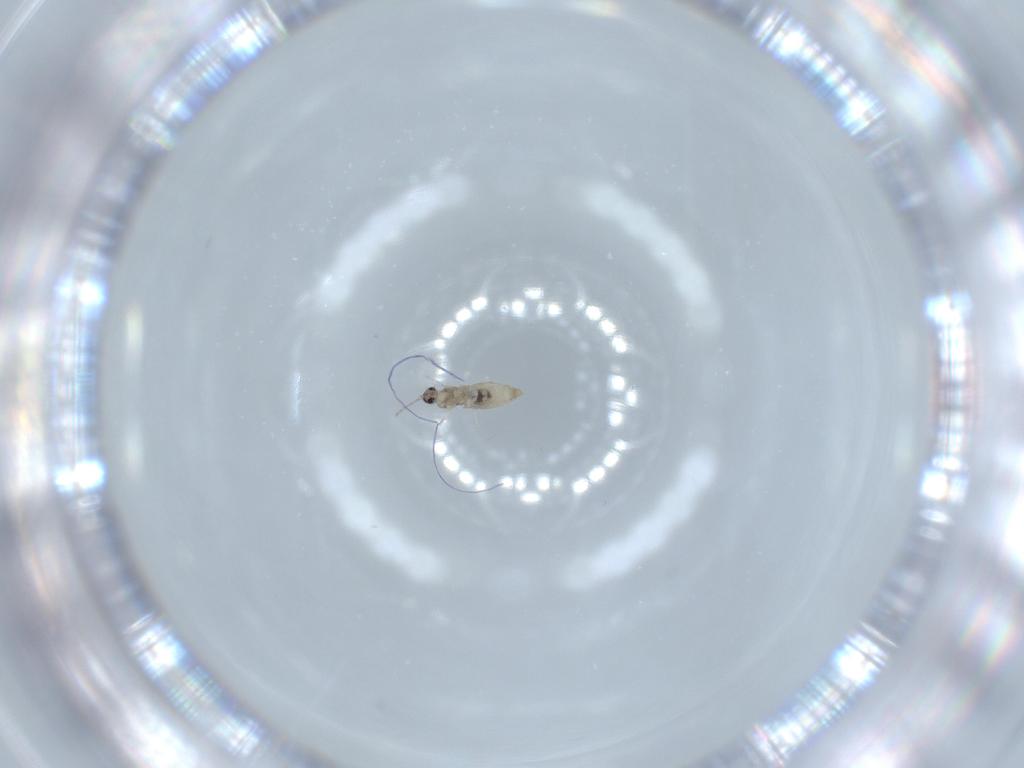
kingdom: Animalia
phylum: Arthropoda
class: Insecta
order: Diptera
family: Cecidomyiidae
